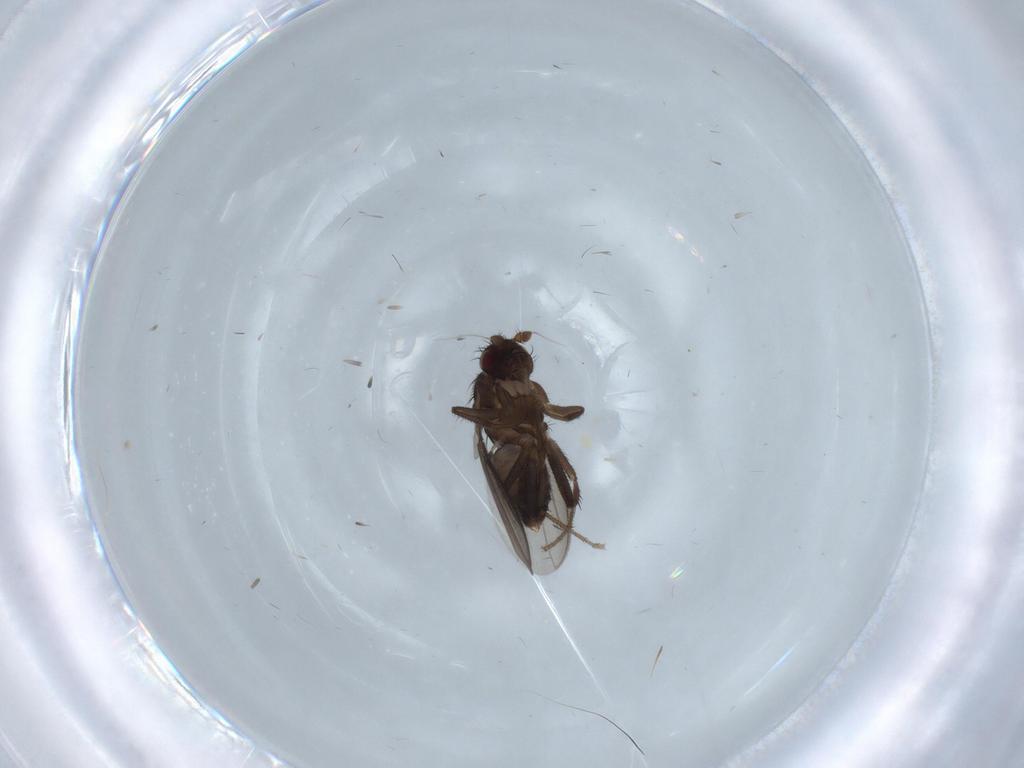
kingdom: Animalia
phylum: Arthropoda
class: Insecta
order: Diptera
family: Sphaeroceridae
